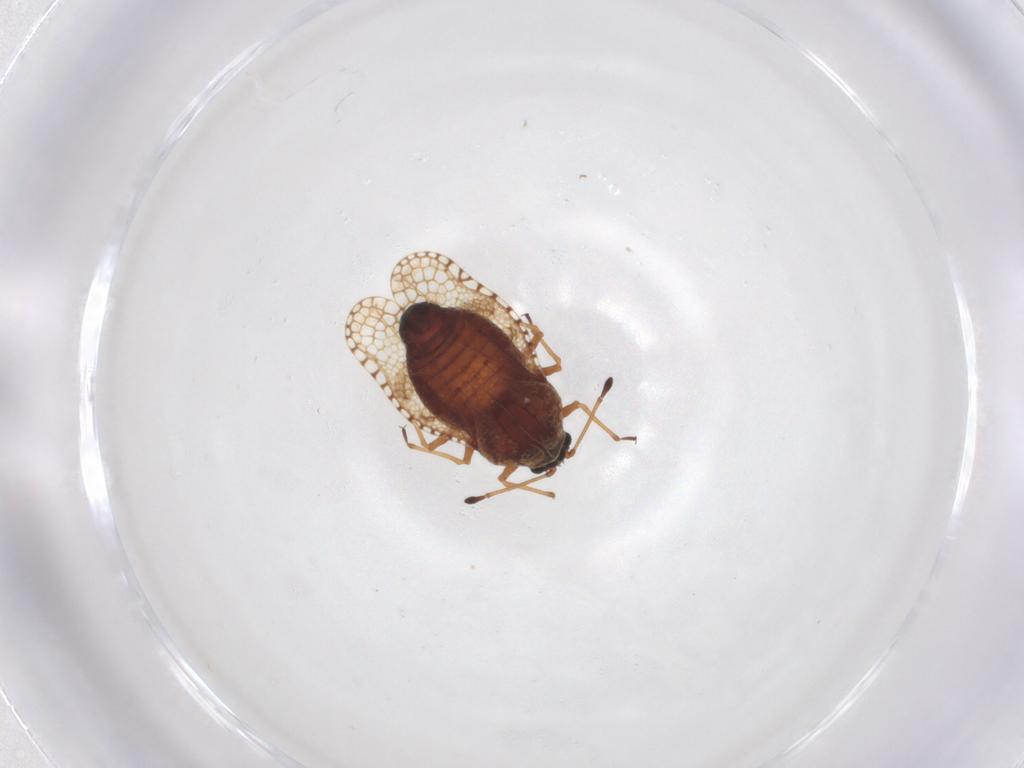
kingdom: Animalia
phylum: Arthropoda
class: Insecta
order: Hemiptera
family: Tingidae
